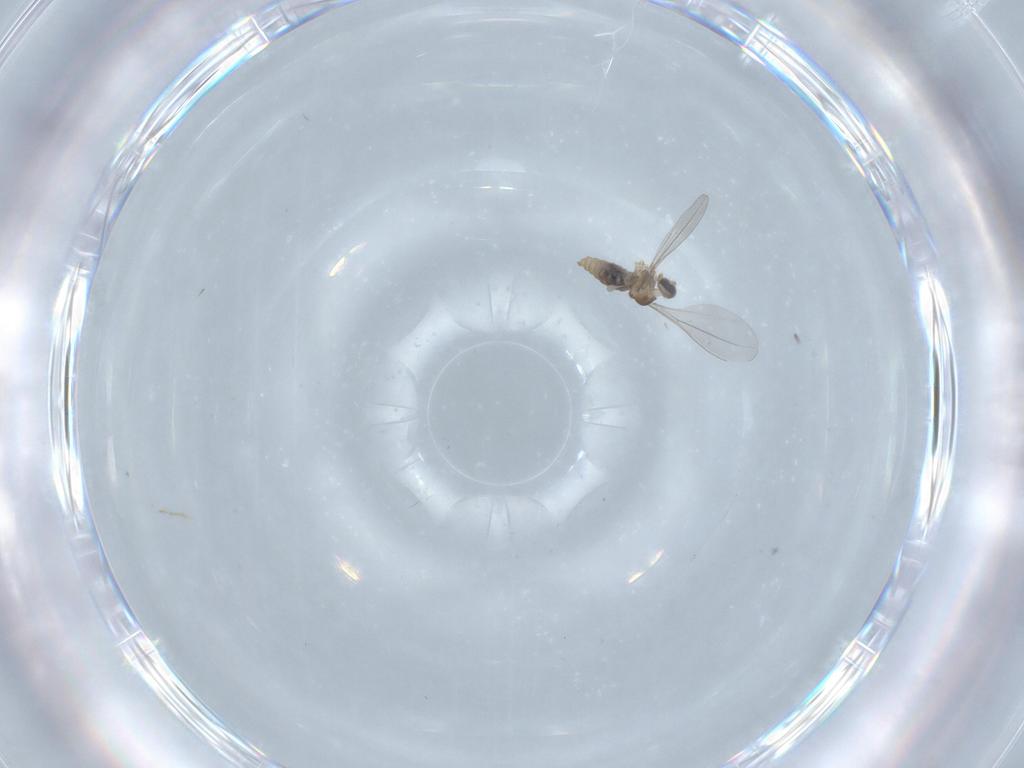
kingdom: Animalia
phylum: Arthropoda
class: Insecta
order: Diptera
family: Cecidomyiidae
